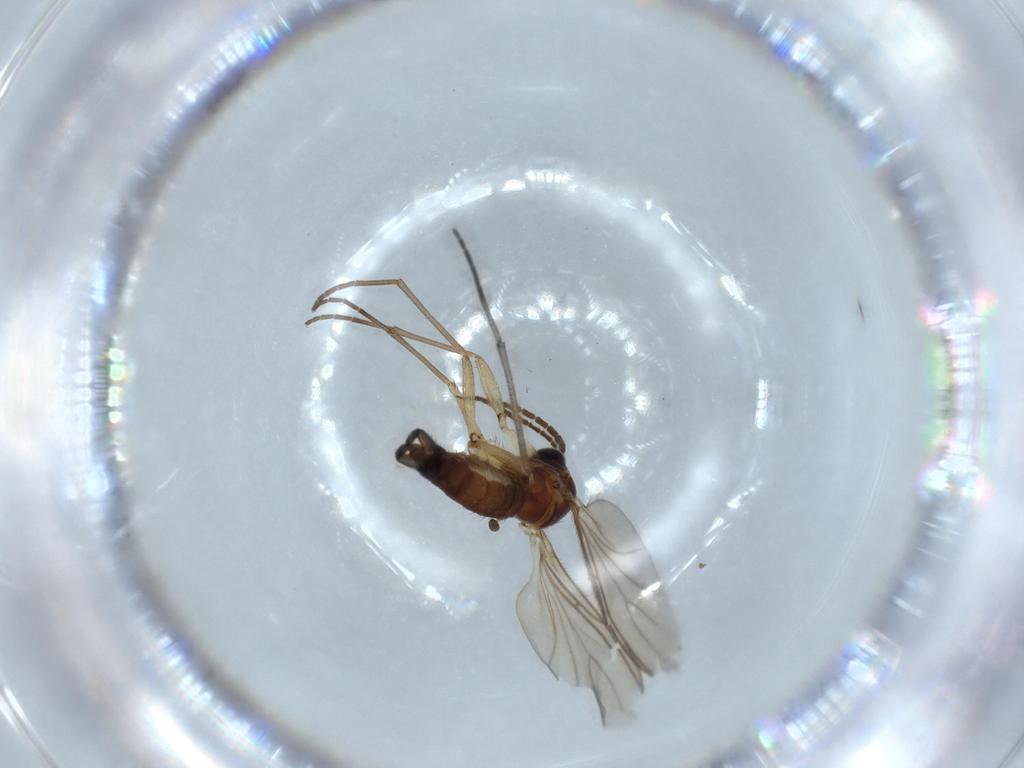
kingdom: Animalia
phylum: Arthropoda
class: Insecta
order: Diptera
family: Sciaridae
